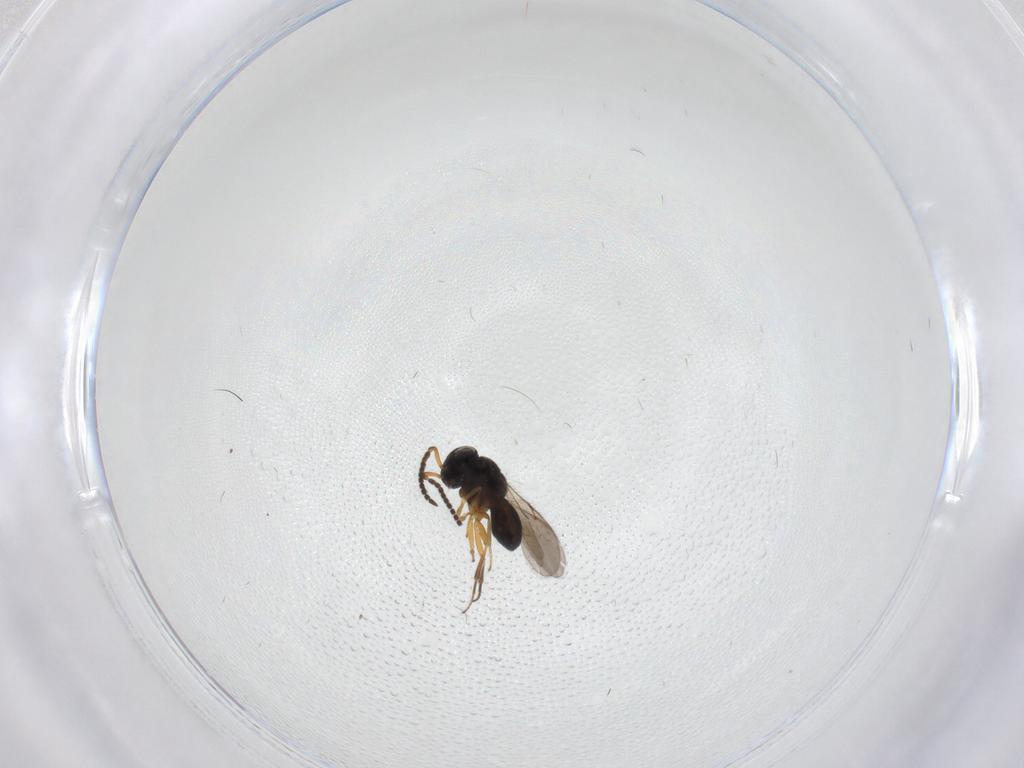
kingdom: Animalia
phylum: Arthropoda
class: Insecta
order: Hymenoptera
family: Scelionidae
